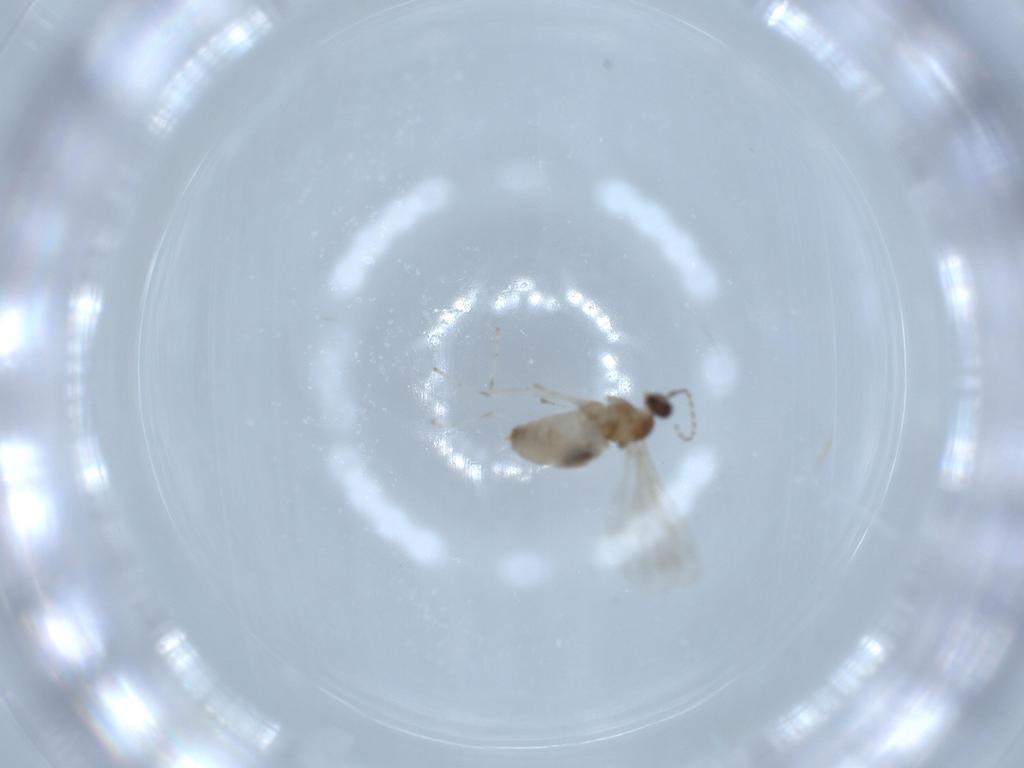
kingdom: Animalia
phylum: Arthropoda
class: Insecta
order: Diptera
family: Cecidomyiidae
